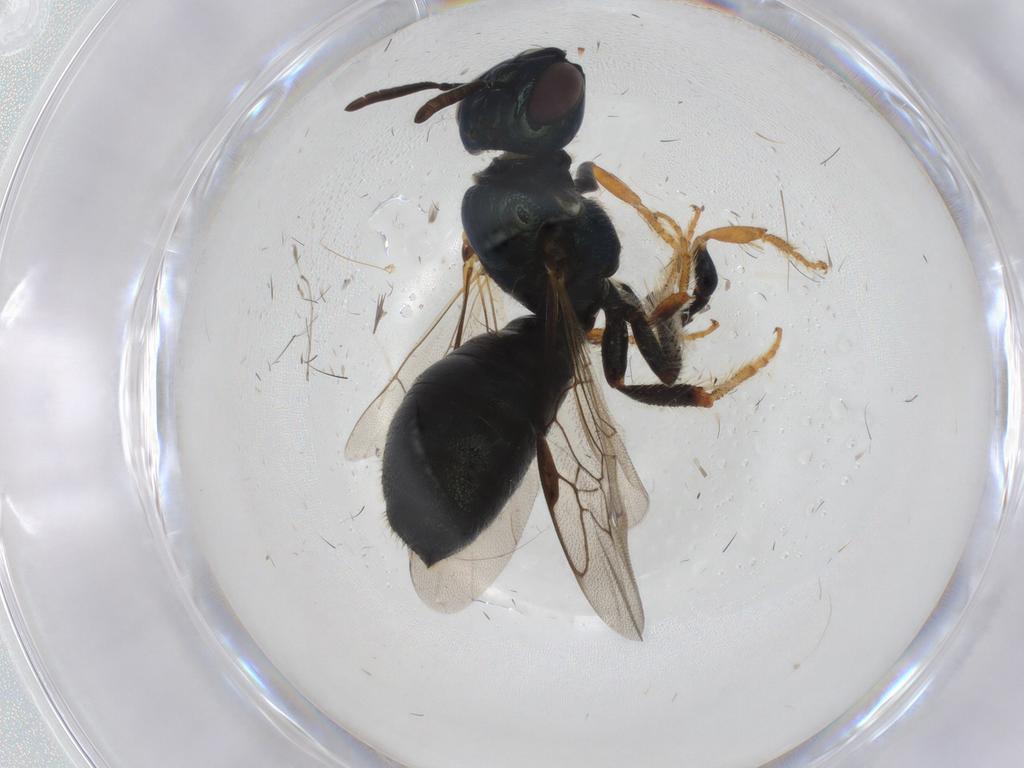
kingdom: Animalia
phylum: Arthropoda
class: Insecta
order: Hymenoptera
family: Apidae
